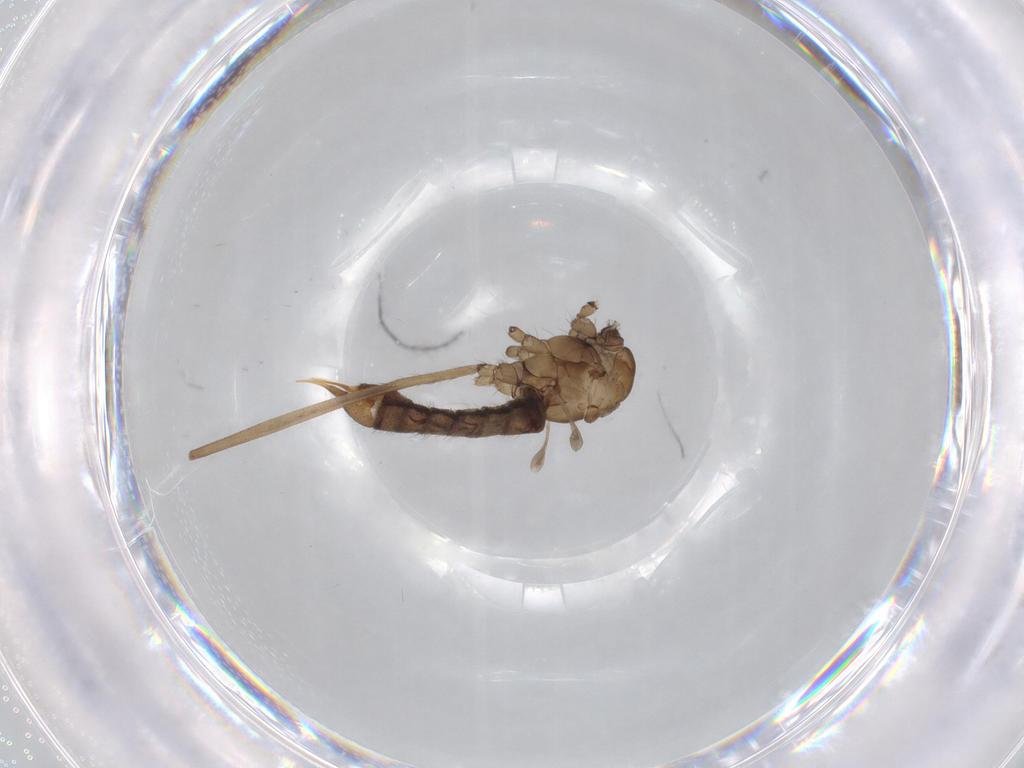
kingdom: Animalia
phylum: Arthropoda
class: Insecta
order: Diptera
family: Limoniidae
